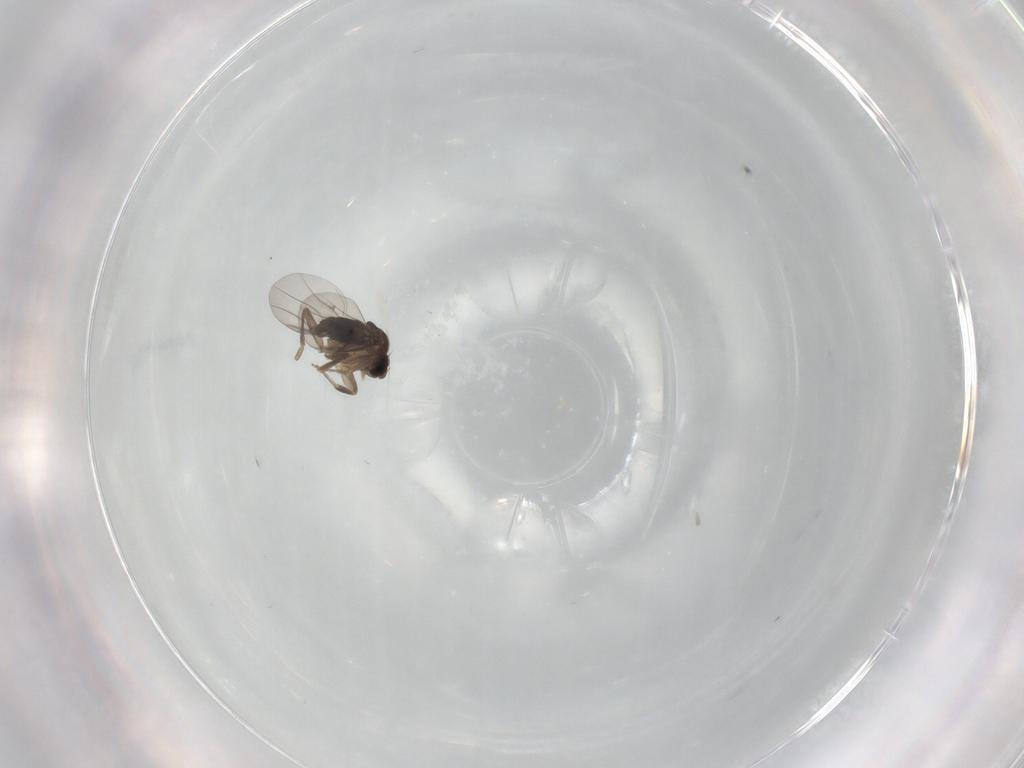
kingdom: Animalia
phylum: Arthropoda
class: Insecta
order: Diptera
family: Phoridae
